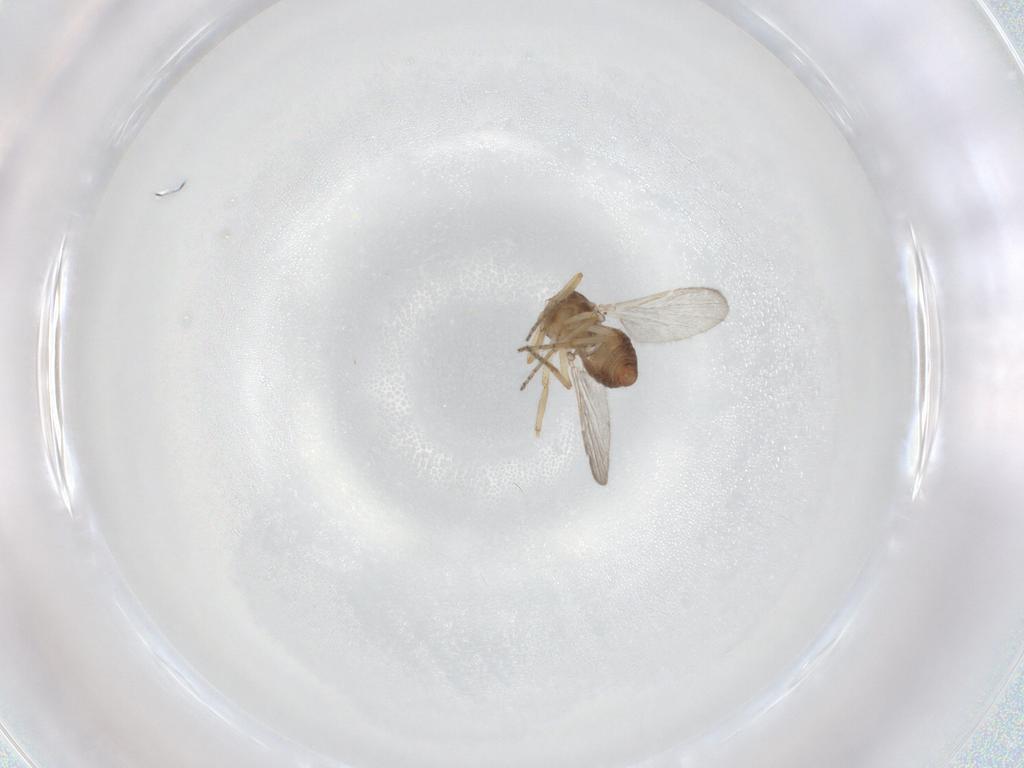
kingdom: Animalia
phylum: Arthropoda
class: Insecta
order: Diptera
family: Ceratopogonidae
